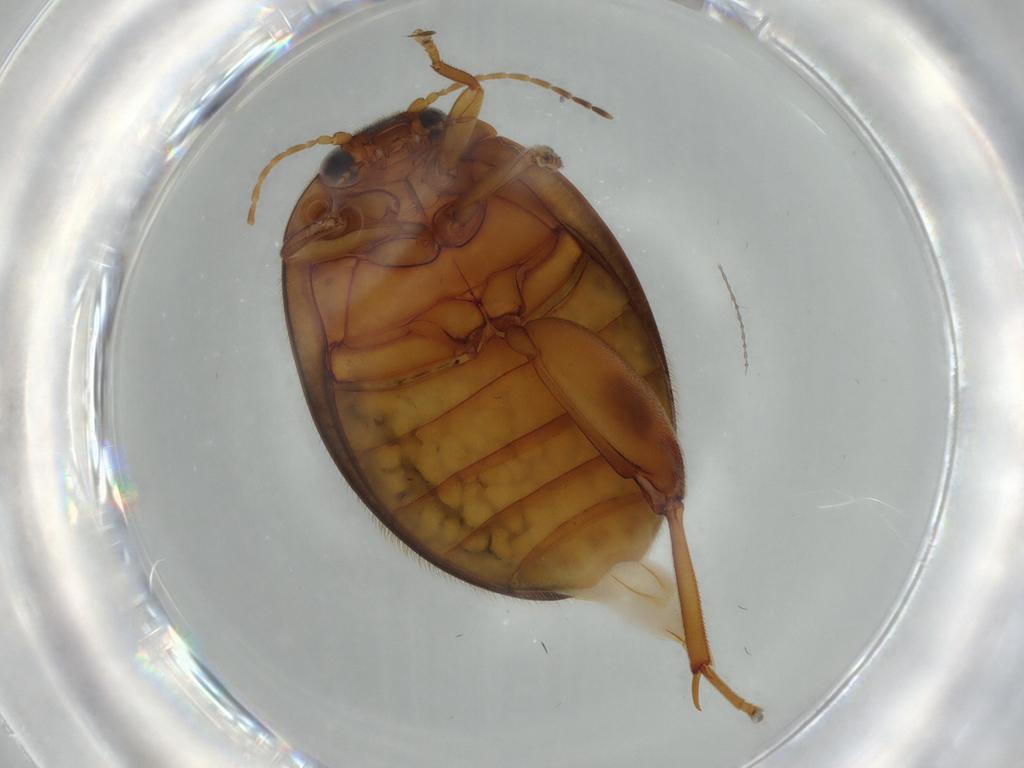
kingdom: Animalia
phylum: Arthropoda
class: Insecta
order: Coleoptera
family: Scirtidae
